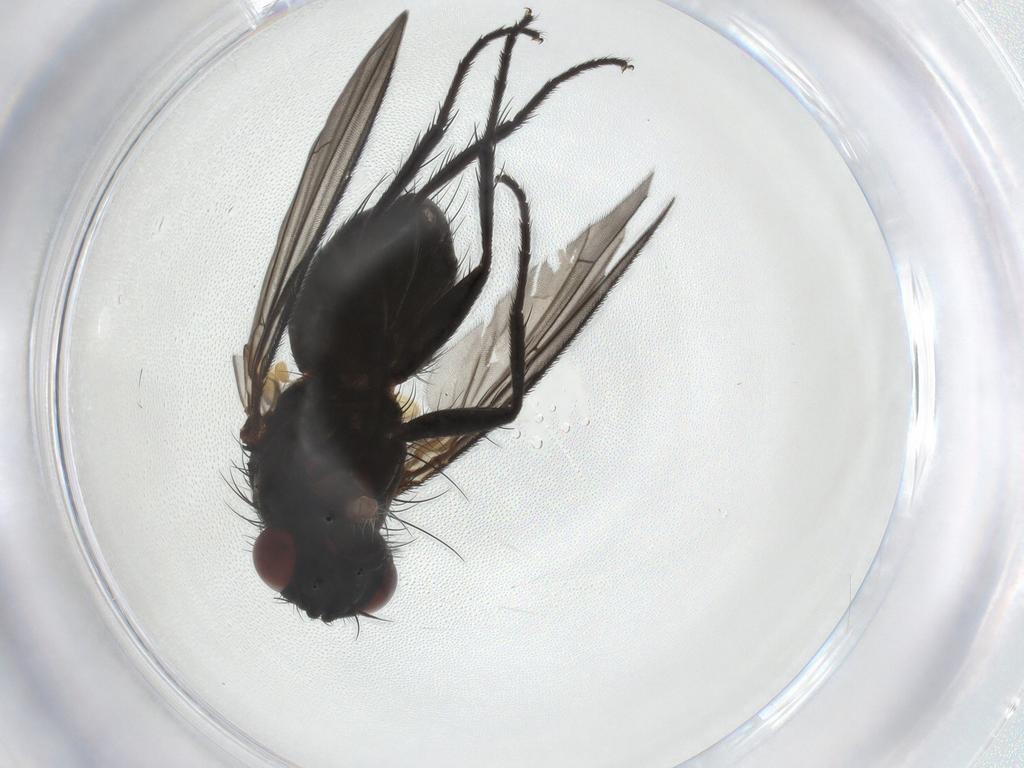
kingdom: Animalia
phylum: Arthropoda
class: Insecta
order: Diptera
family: Tachinidae
